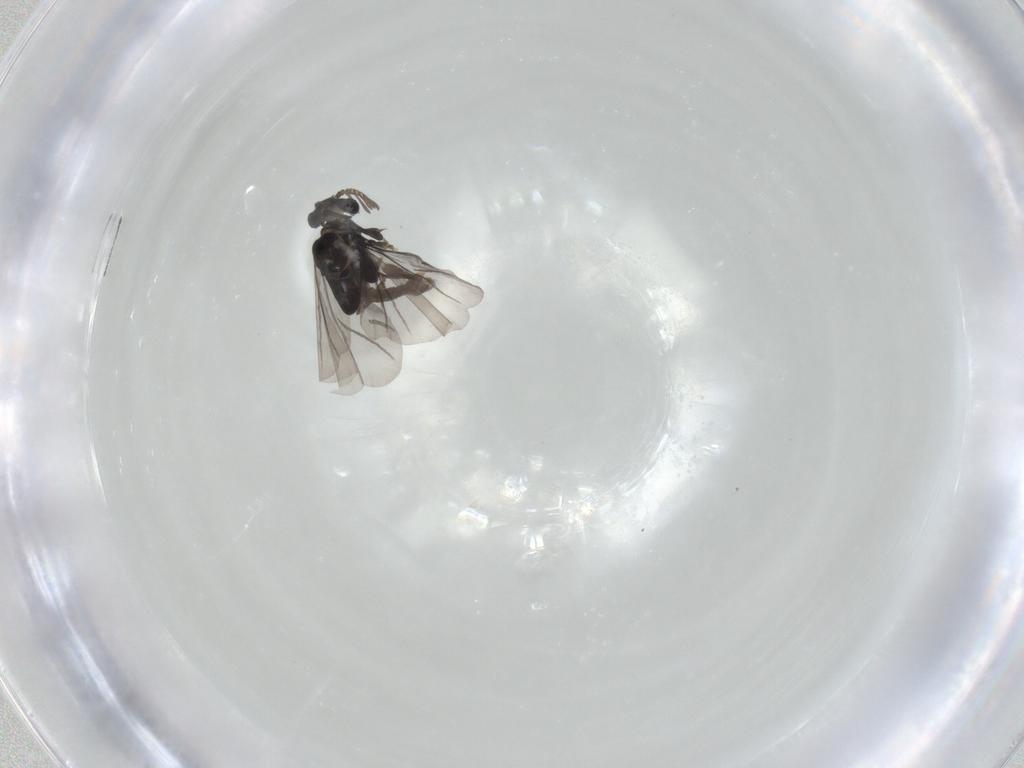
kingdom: Animalia
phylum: Arthropoda
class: Insecta
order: Strepsiptera
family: Halictophagidae
